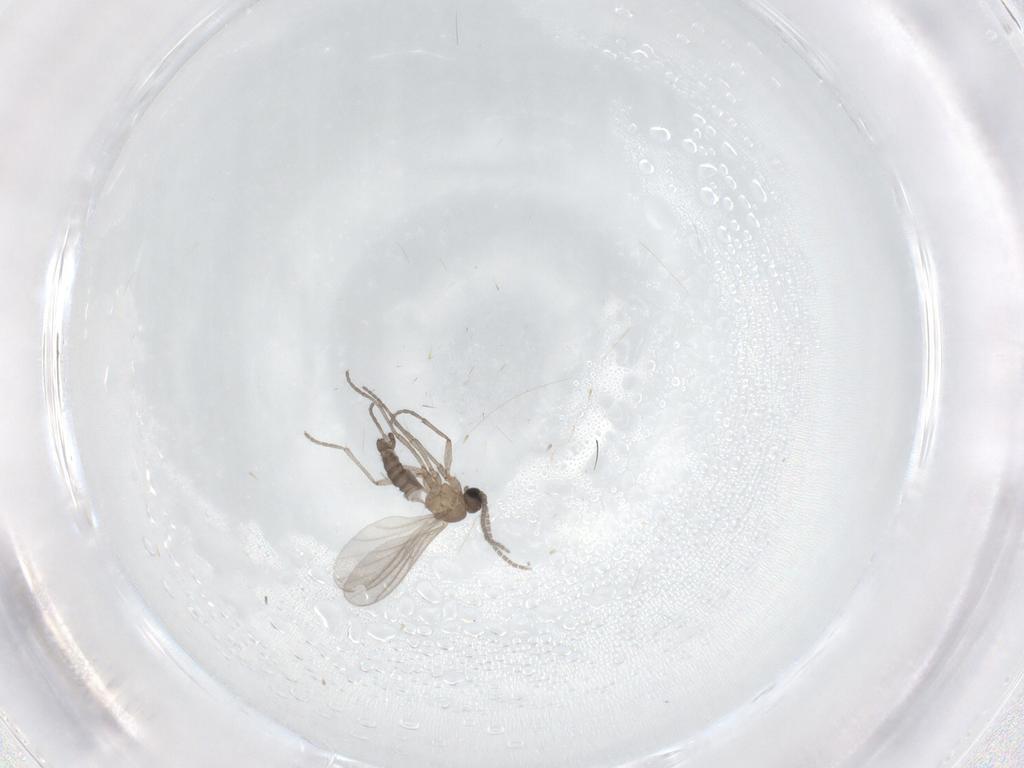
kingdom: Animalia
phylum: Arthropoda
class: Insecta
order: Diptera
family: Sciaridae
